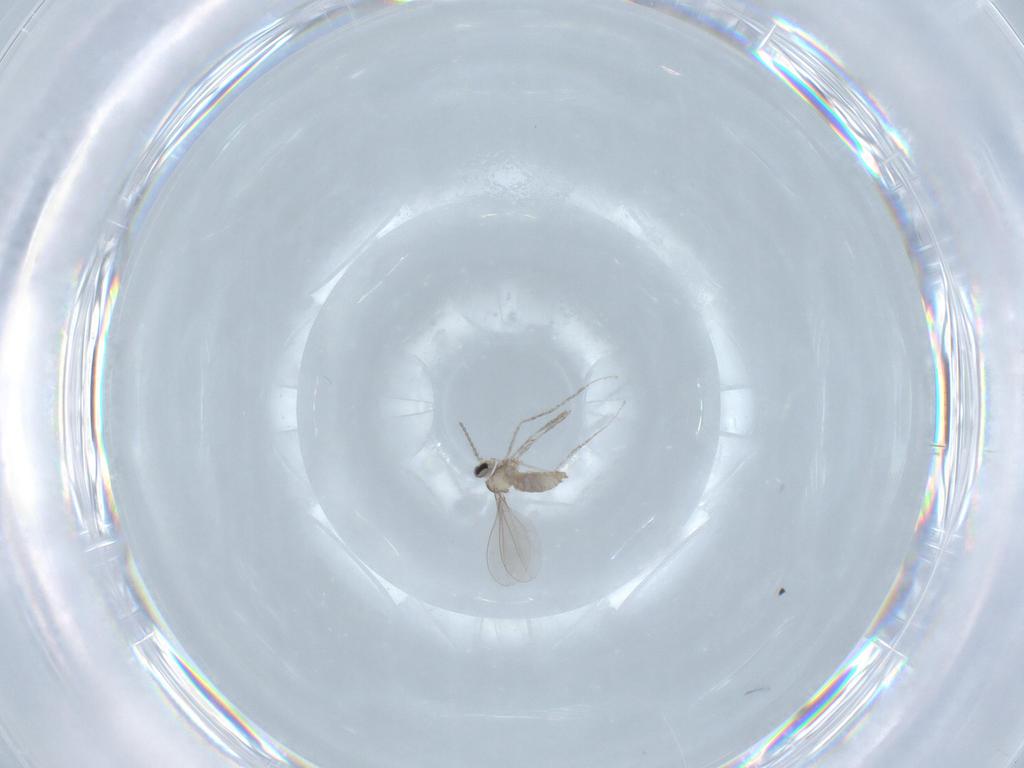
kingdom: Animalia
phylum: Arthropoda
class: Insecta
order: Diptera
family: Cecidomyiidae
